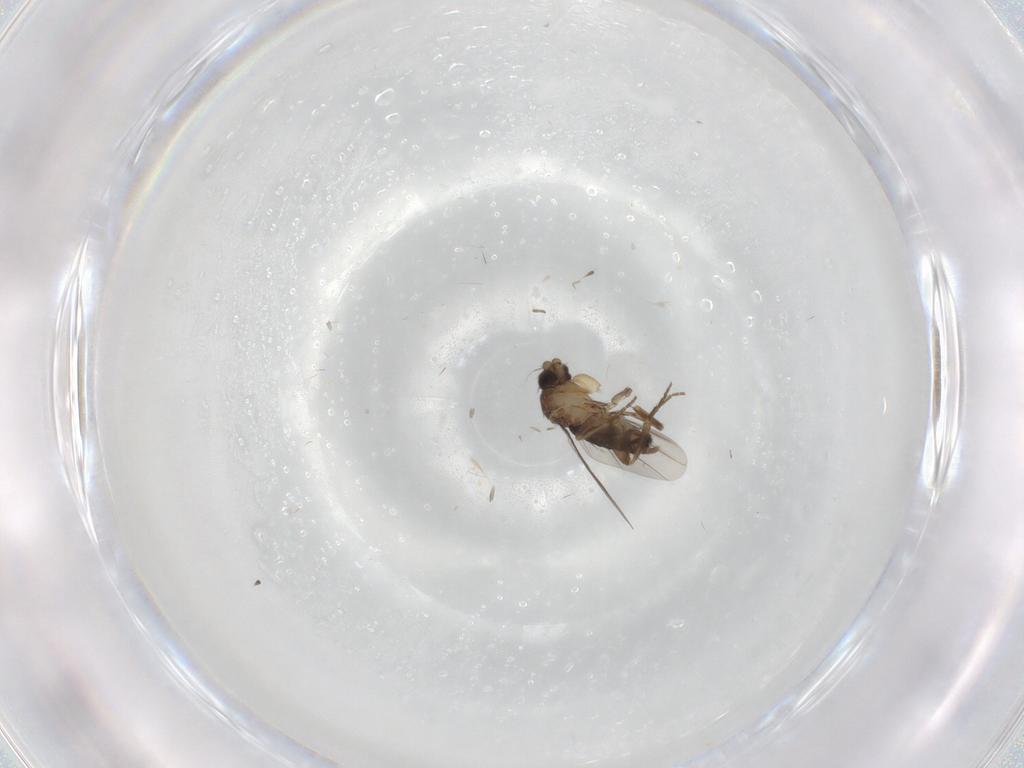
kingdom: Animalia
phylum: Arthropoda
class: Insecta
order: Diptera
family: Phoridae
